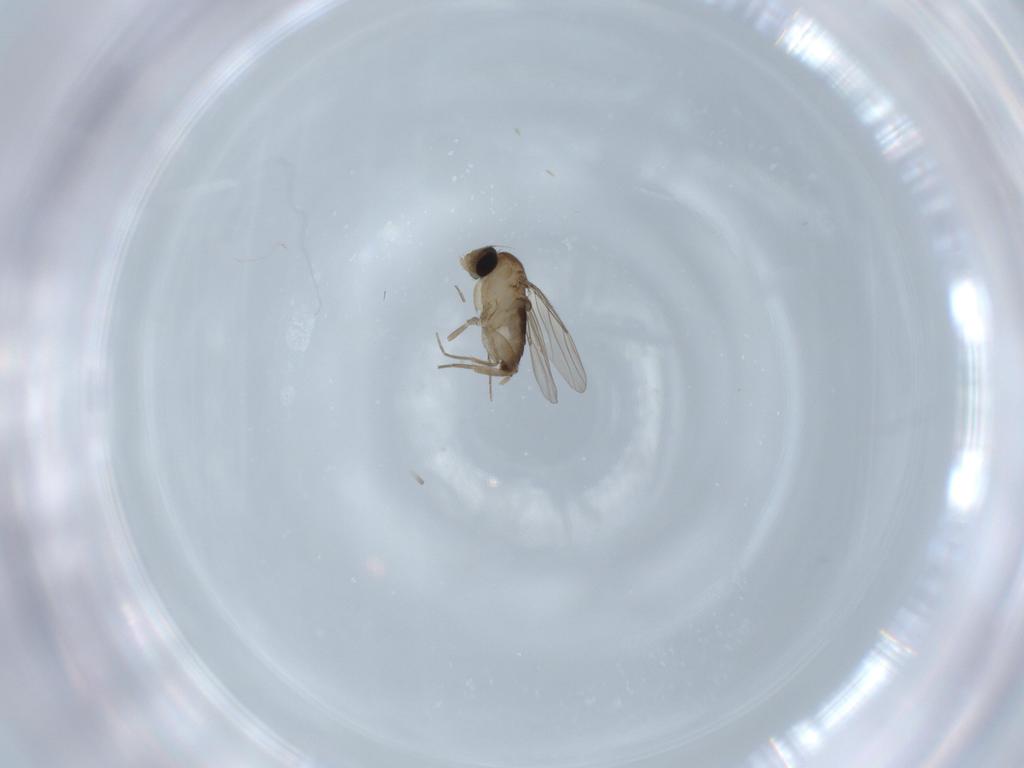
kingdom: Animalia
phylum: Arthropoda
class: Insecta
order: Diptera
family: Phoridae
